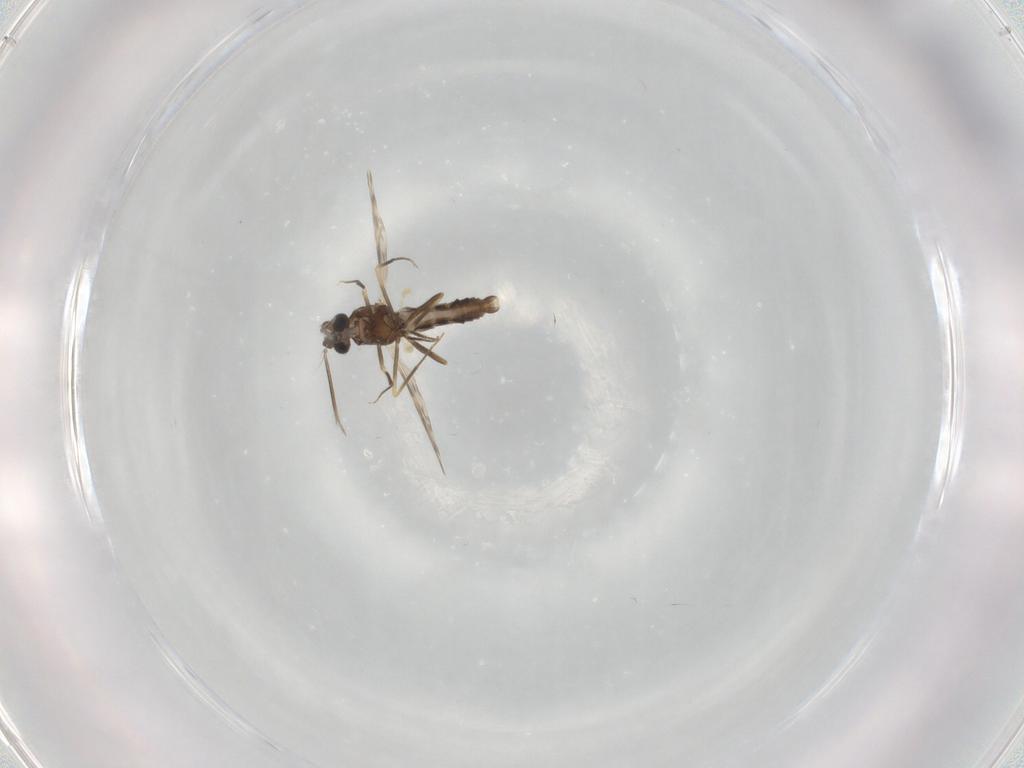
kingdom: Animalia
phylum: Arthropoda
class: Insecta
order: Diptera
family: Ceratopogonidae
